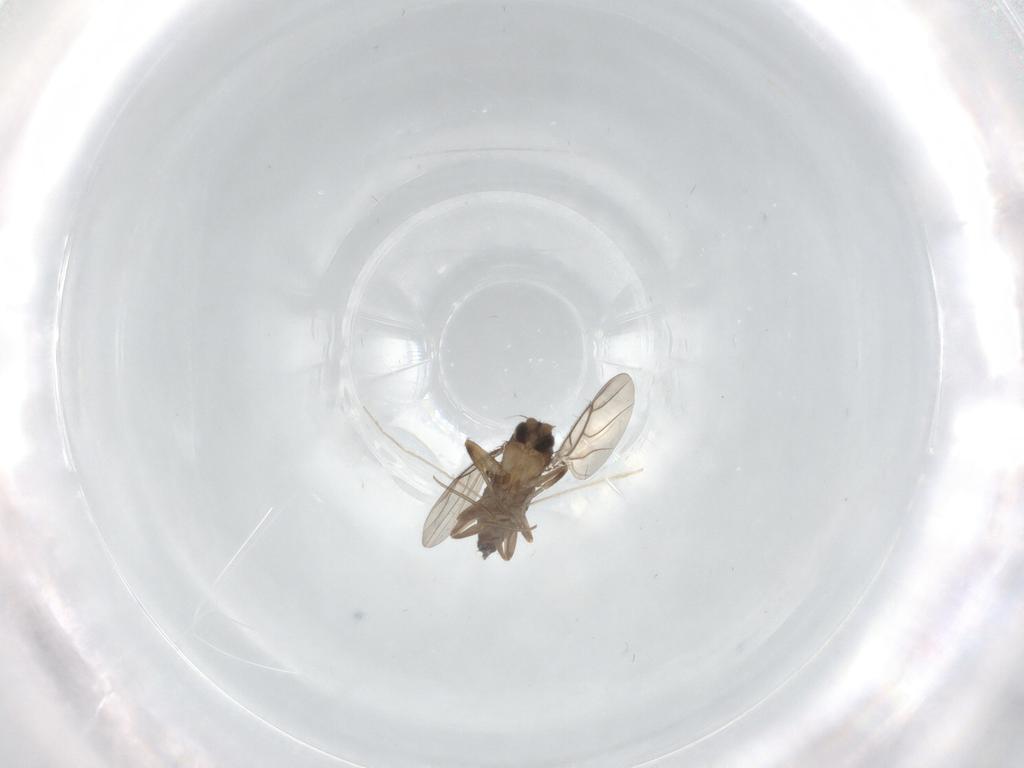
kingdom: Animalia
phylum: Arthropoda
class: Insecta
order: Diptera
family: Phoridae
